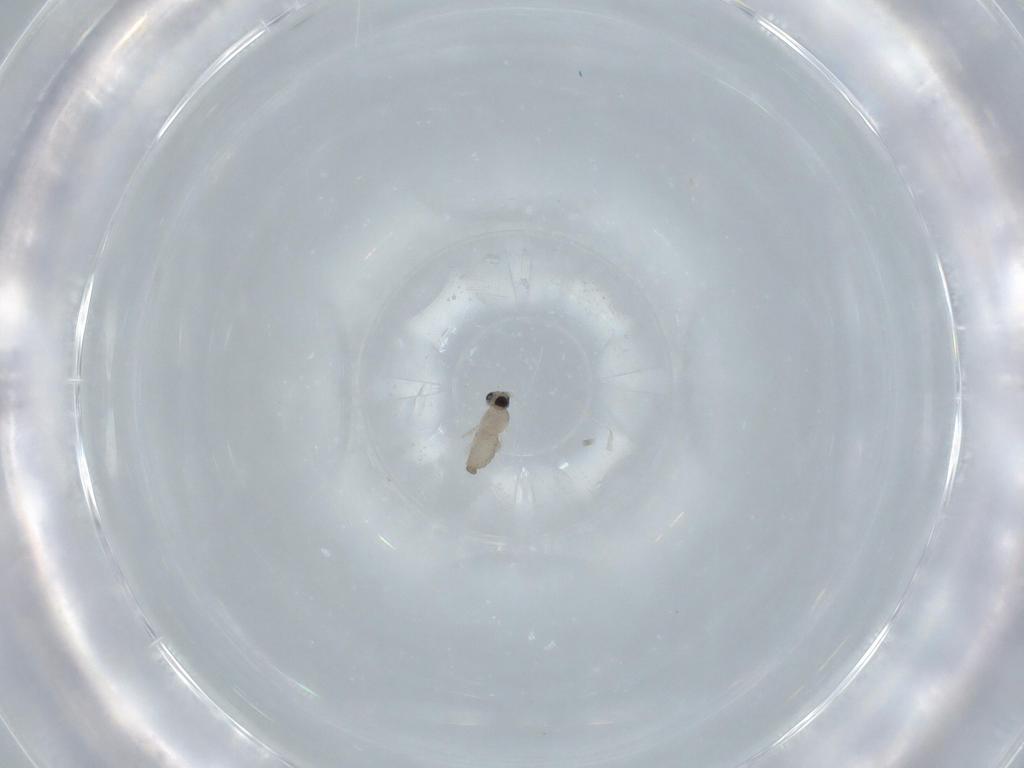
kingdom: Animalia
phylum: Arthropoda
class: Insecta
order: Diptera
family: Cecidomyiidae
